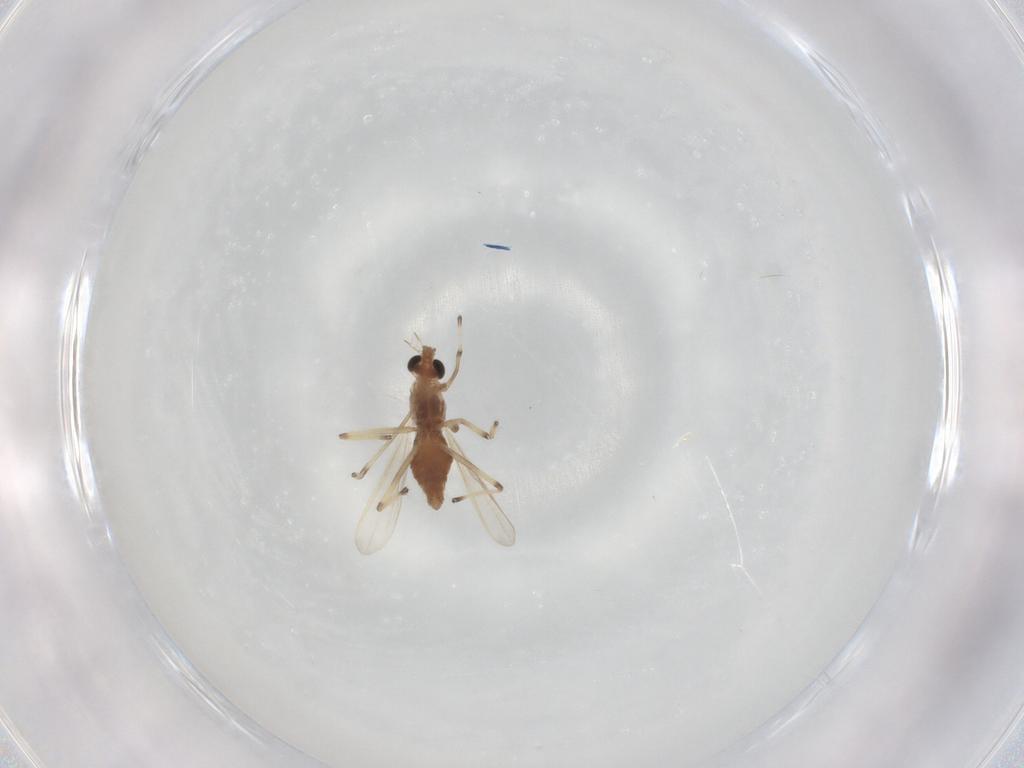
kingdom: Animalia
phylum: Arthropoda
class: Insecta
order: Diptera
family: Chironomidae
